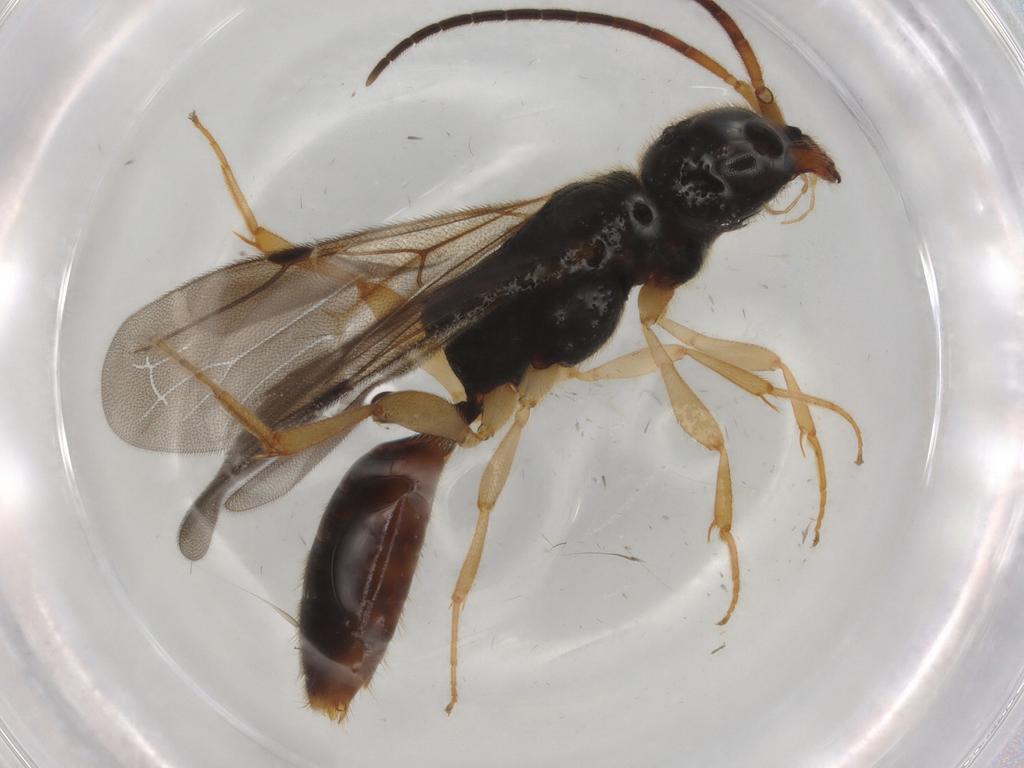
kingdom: Animalia
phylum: Arthropoda
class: Insecta
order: Hymenoptera
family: Bethylidae
